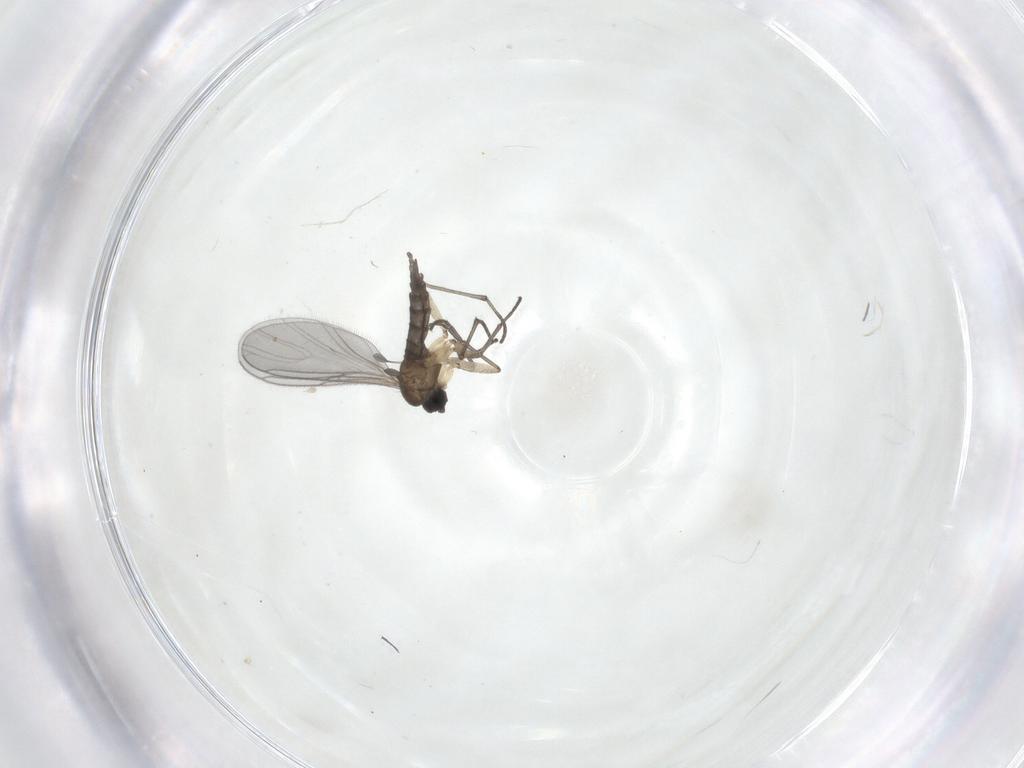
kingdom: Animalia
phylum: Arthropoda
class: Insecta
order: Diptera
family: Sciaridae
